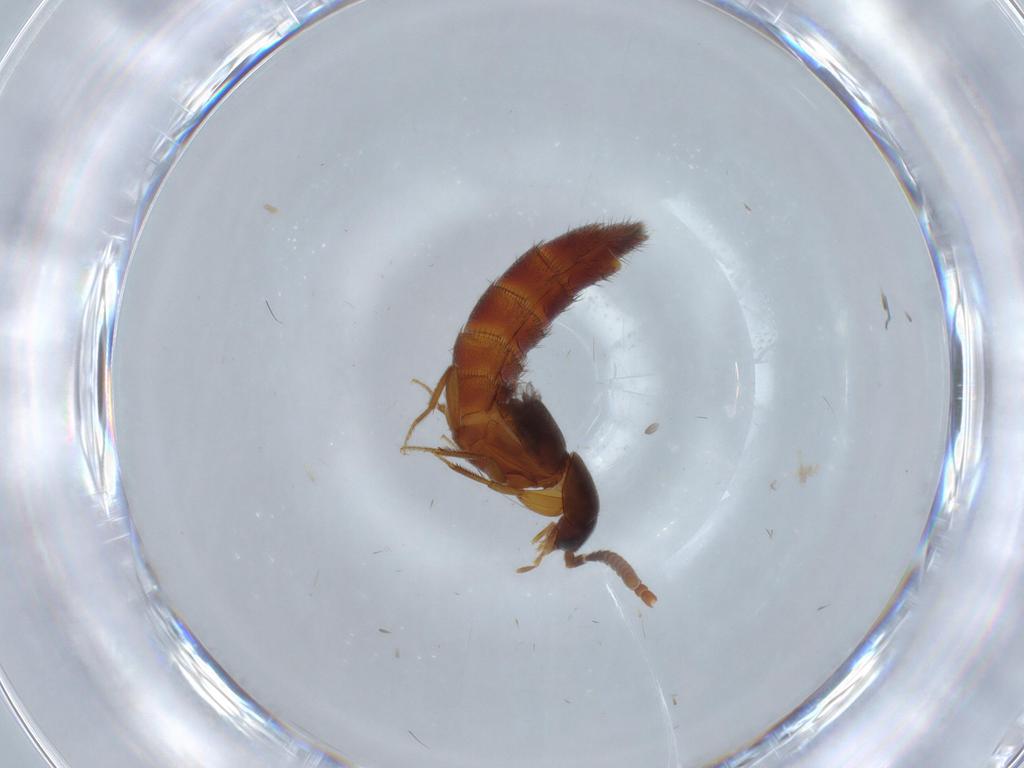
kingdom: Animalia
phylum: Arthropoda
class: Insecta
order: Coleoptera
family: Staphylinidae
